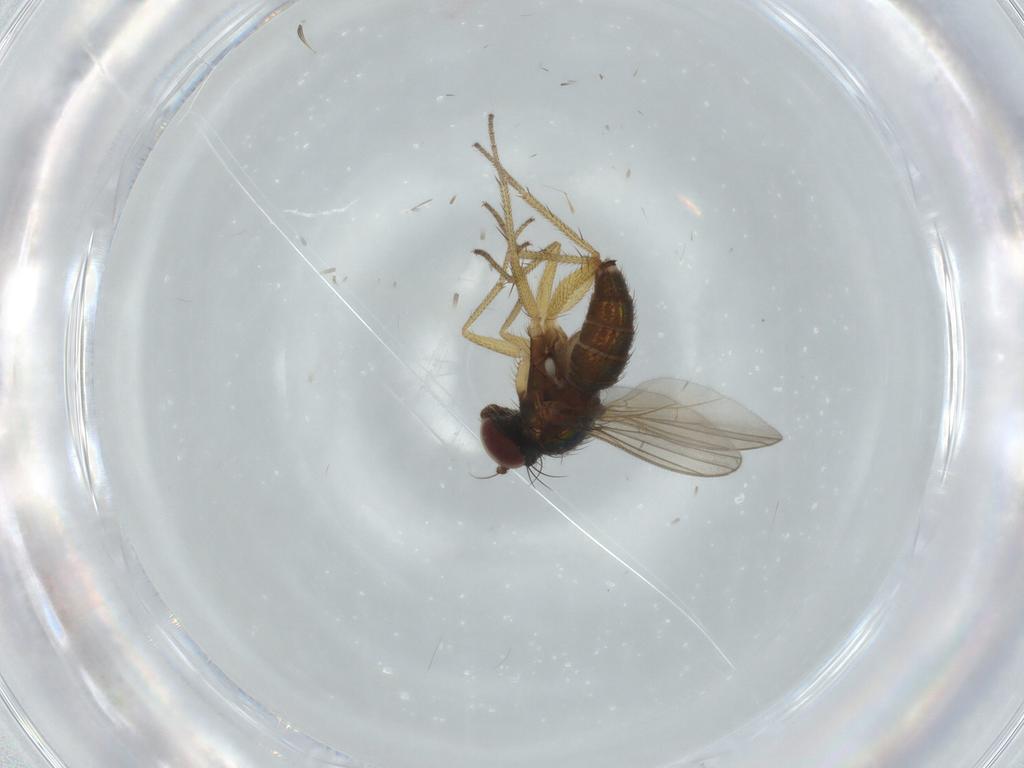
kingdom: Animalia
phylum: Arthropoda
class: Insecta
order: Diptera
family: Dolichopodidae
